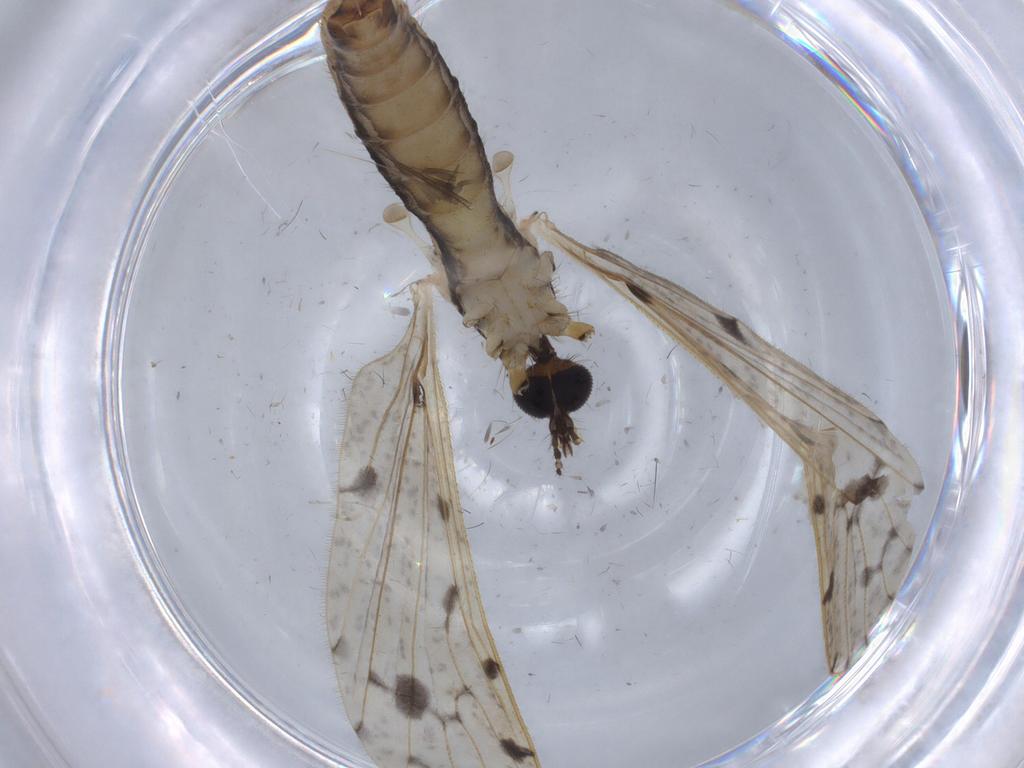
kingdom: Animalia
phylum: Arthropoda
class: Insecta
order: Diptera
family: Limoniidae
